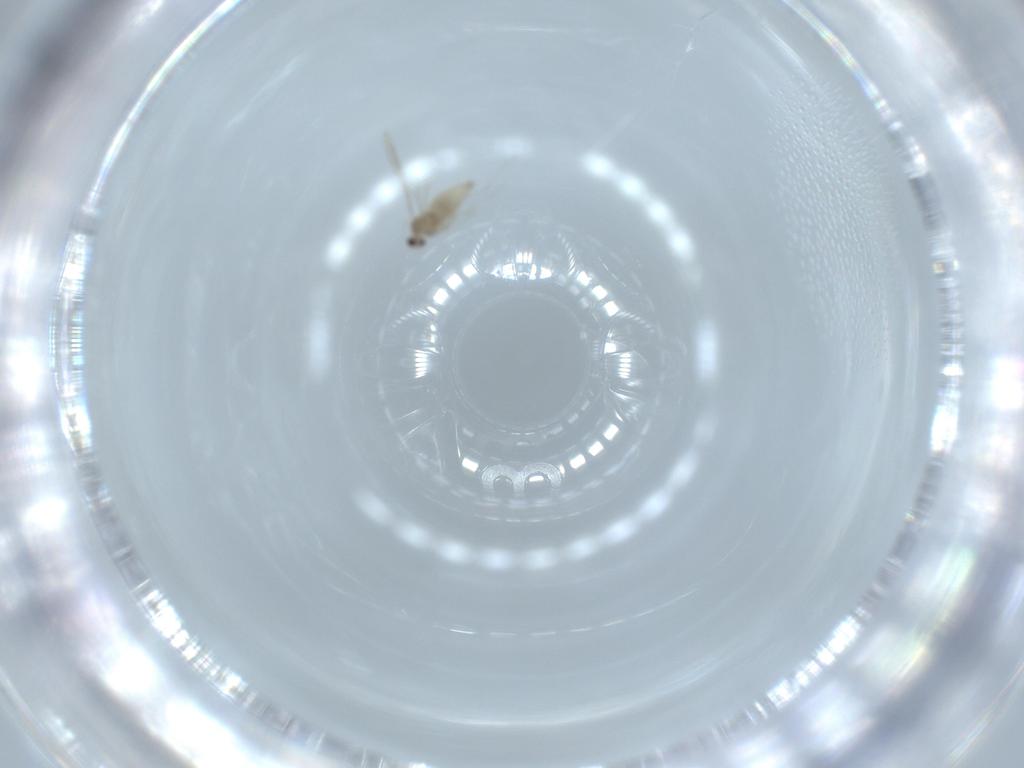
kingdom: Animalia
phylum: Arthropoda
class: Insecta
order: Diptera
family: Cecidomyiidae
